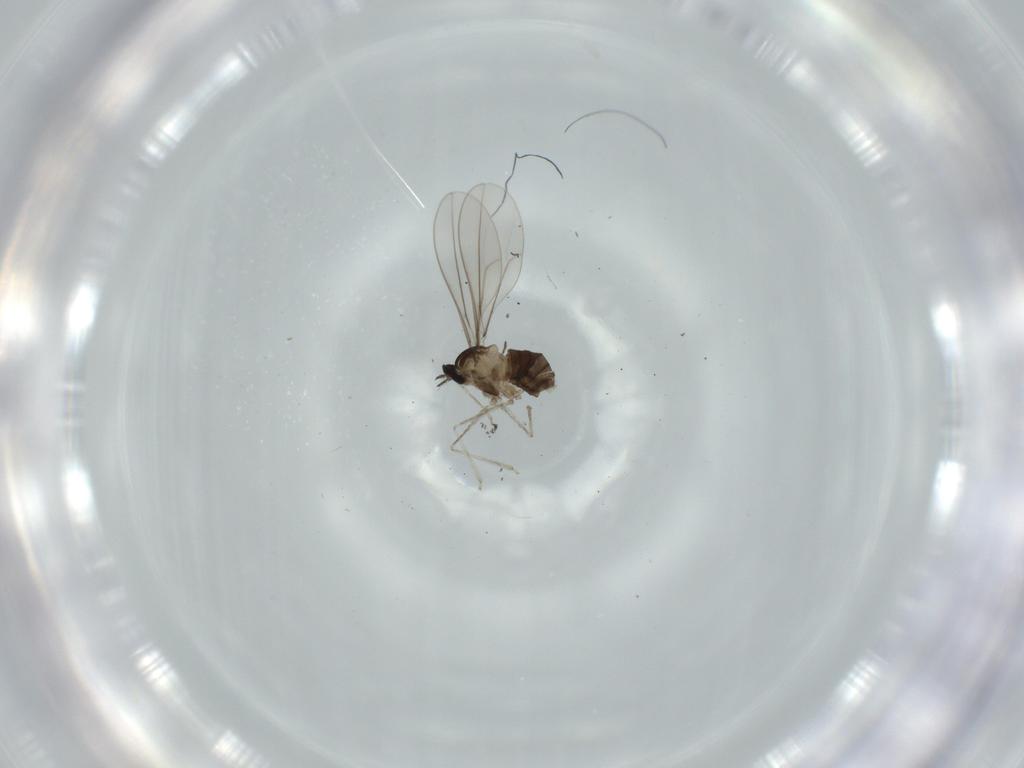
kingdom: Animalia
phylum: Arthropoda
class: Insecta
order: Diptera
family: Cecidomyiidae
